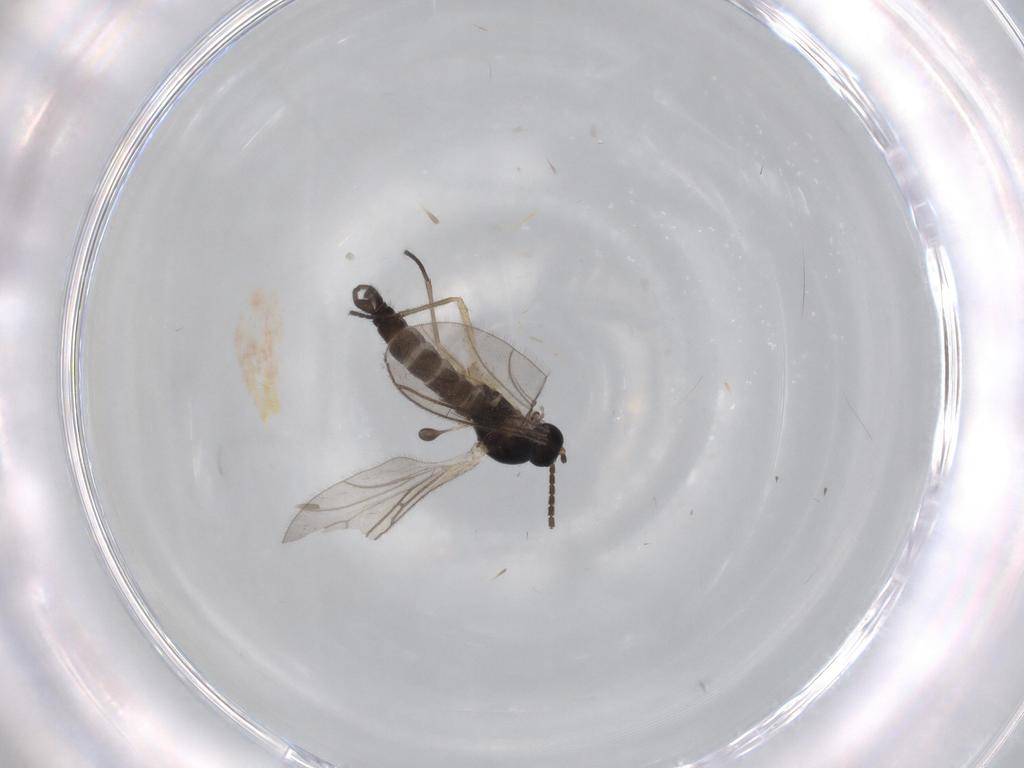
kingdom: Animalia
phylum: Arthropoda
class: Insecta
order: Diptera
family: Sciaridae
